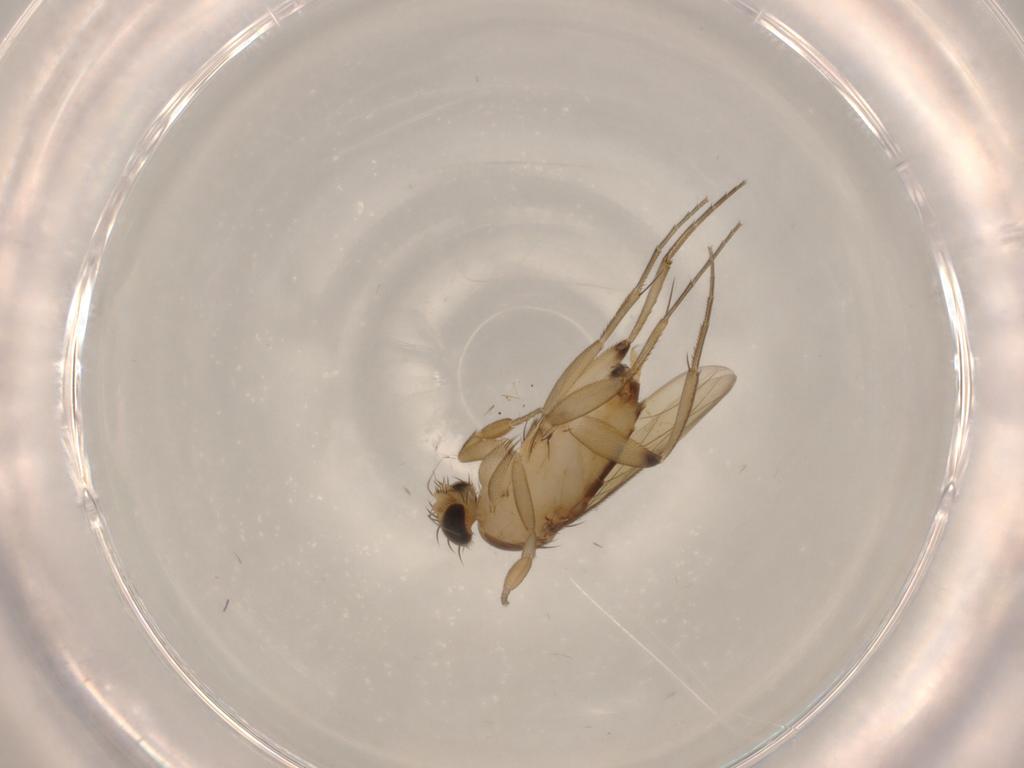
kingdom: Animalia
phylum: Arthropoda
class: Insecta
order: Diptera
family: Phoridae
